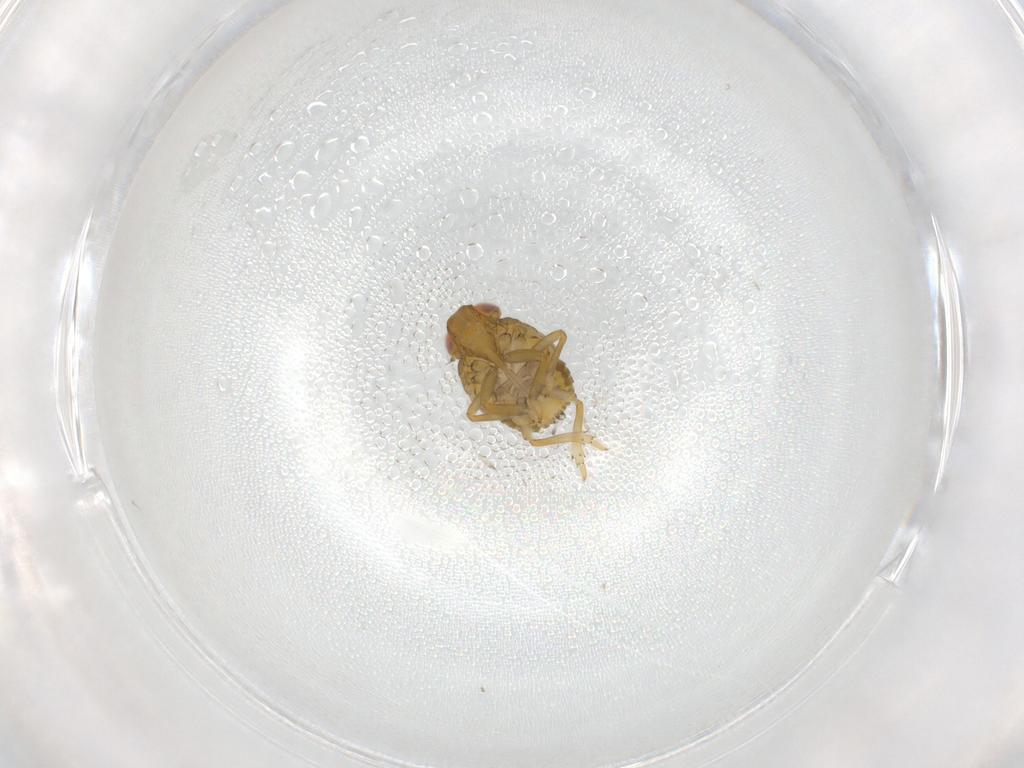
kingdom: Animalia
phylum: Arthropoda
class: Insecta
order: Hemiptera
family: Issidae
